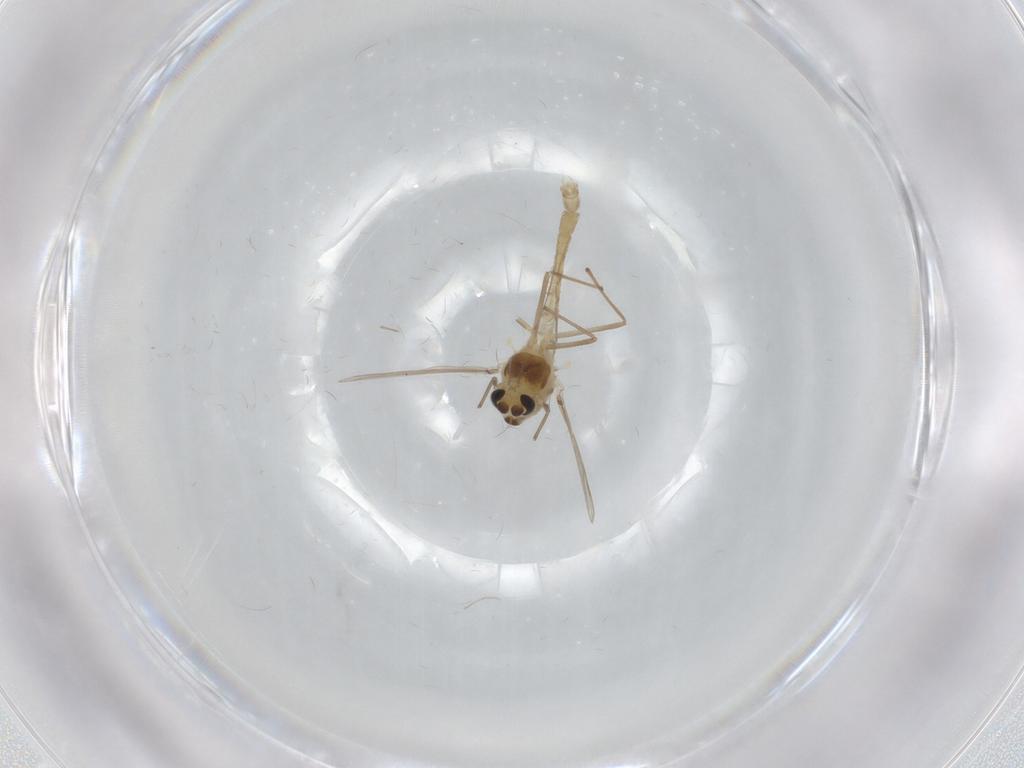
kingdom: Animalia
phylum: Arthropoda
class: Insecta
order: Diptera
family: Chironomidae
